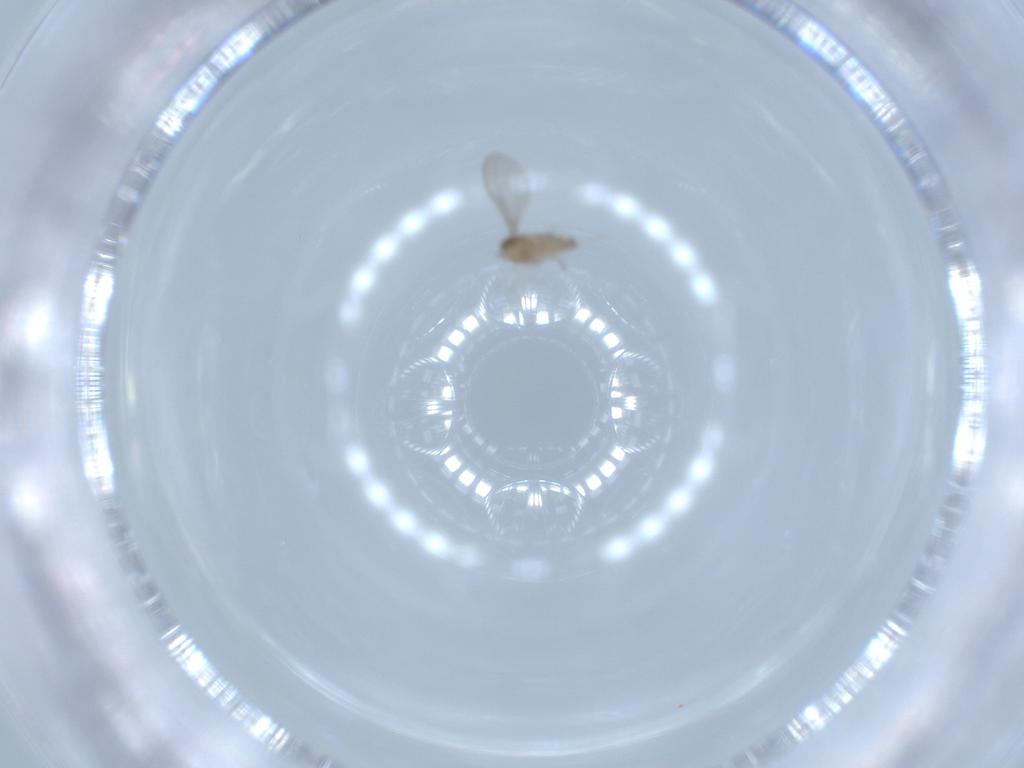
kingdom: Animalia
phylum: Arthropoda
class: Insecta
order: Diptera
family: Cecidomyiidae
